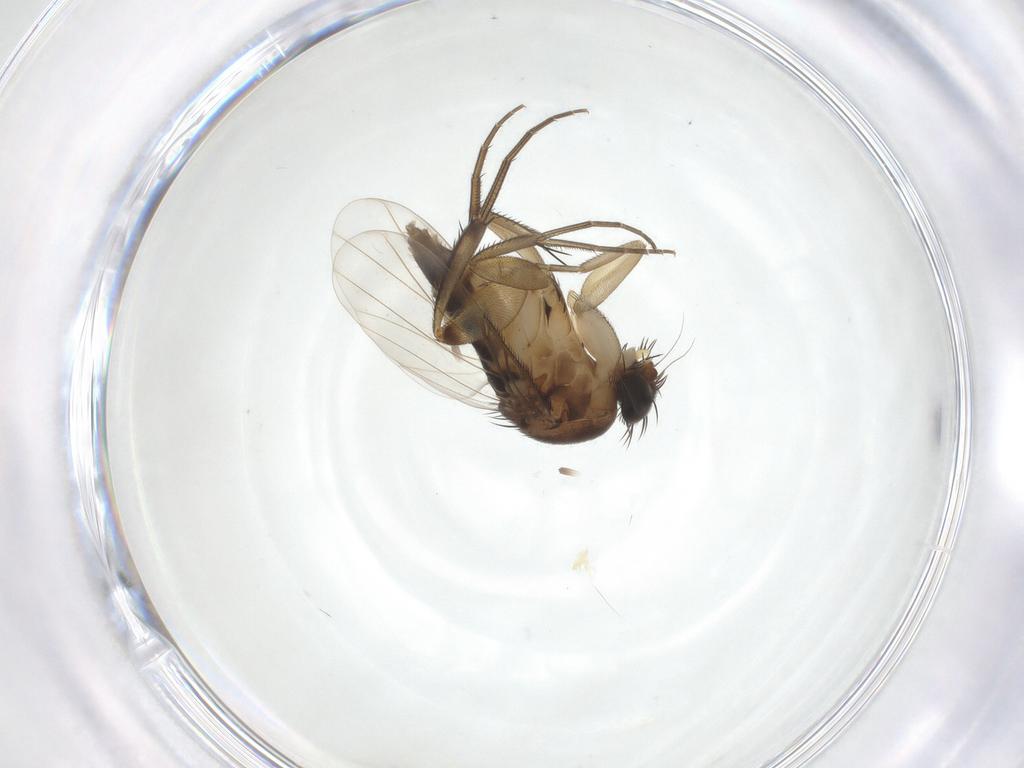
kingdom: Animalia
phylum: Arthropoda
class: Insecta
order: Diptera
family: Phoridae
